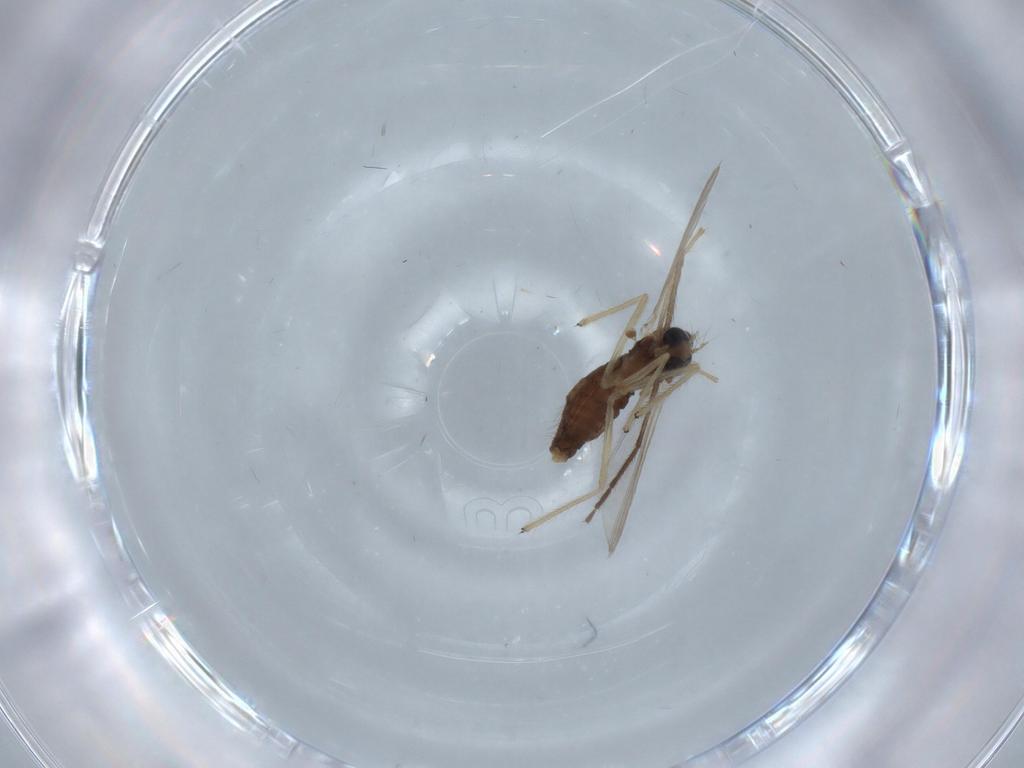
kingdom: Animalia
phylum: Arthropoda
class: Insecta
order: Diptera
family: Chironomidae
